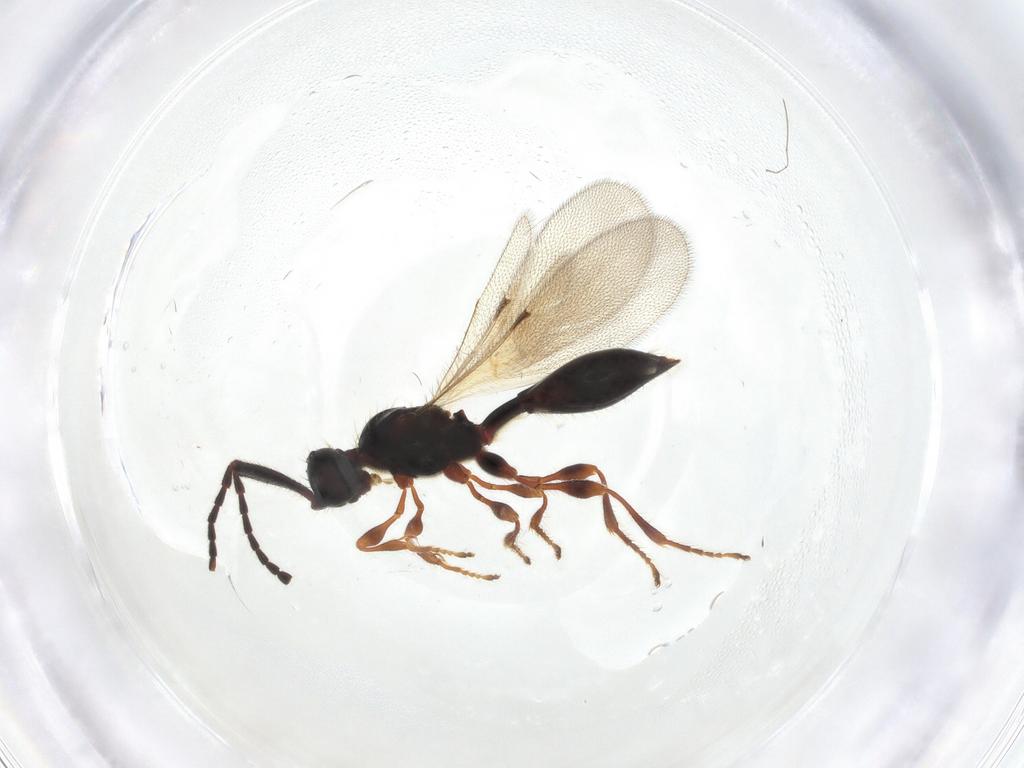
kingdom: Animalia
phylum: Arthropoda
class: Insecta
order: Hymenoptera
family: Diapriidae
